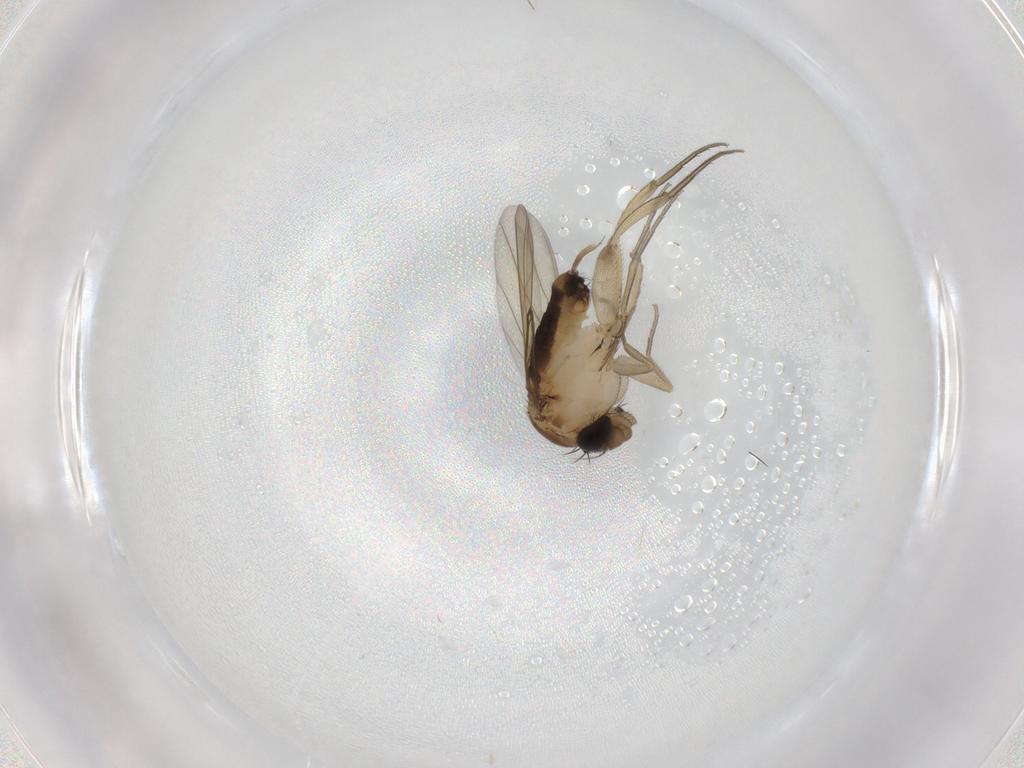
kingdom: Animalia
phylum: Arthropoda
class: Insecta
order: Diptera
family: Phoridae
